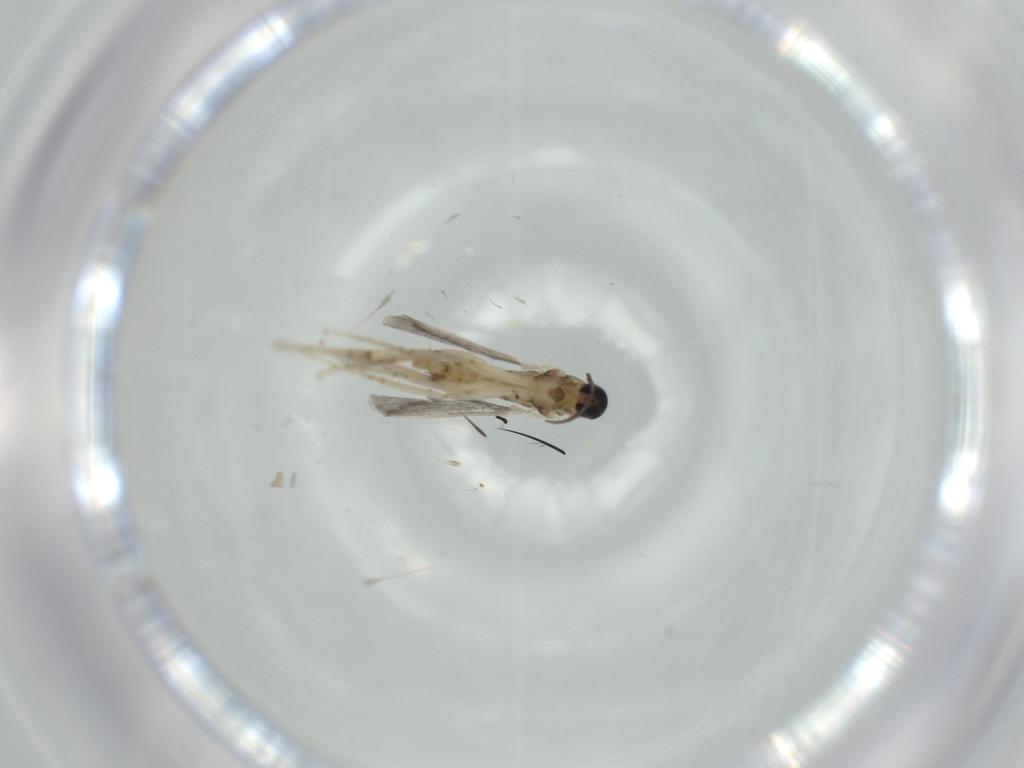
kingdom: Animalia
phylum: Arthropoda
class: Insecta
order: Diptera
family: Cecidomyiidae
